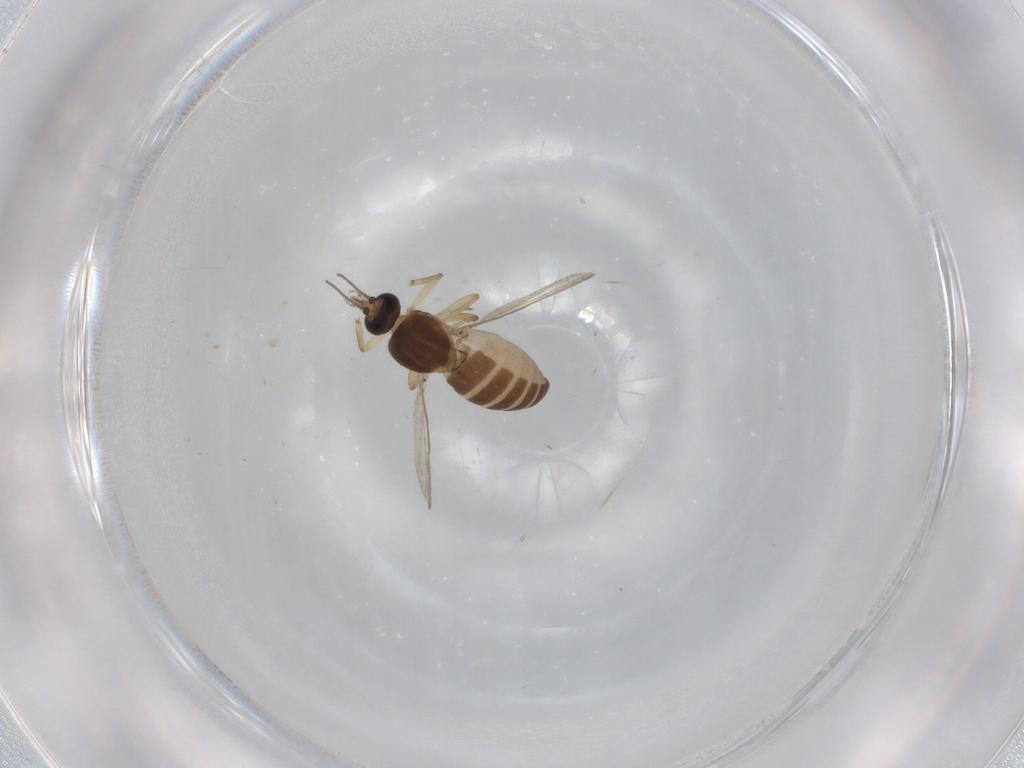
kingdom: Animalia
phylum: Arthropoda
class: Insecta
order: Diptera
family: Ceratopogonidae
